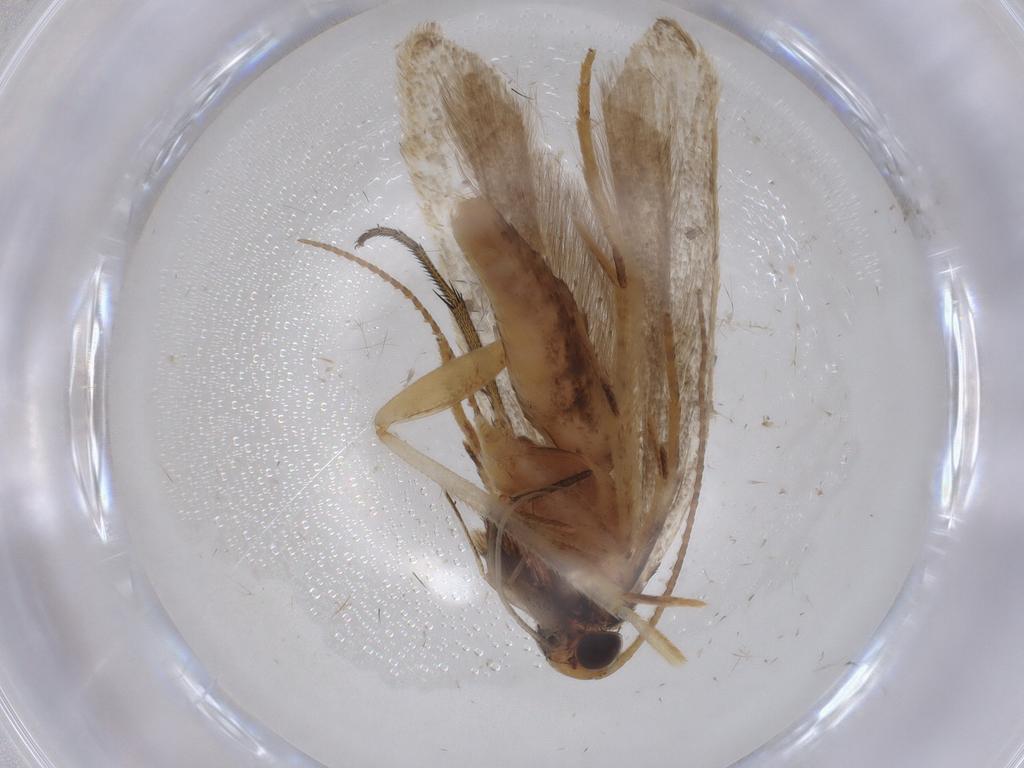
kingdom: Animalia
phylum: Arthropoda
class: Insecta
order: Lepidoptera
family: Gelechiidae
